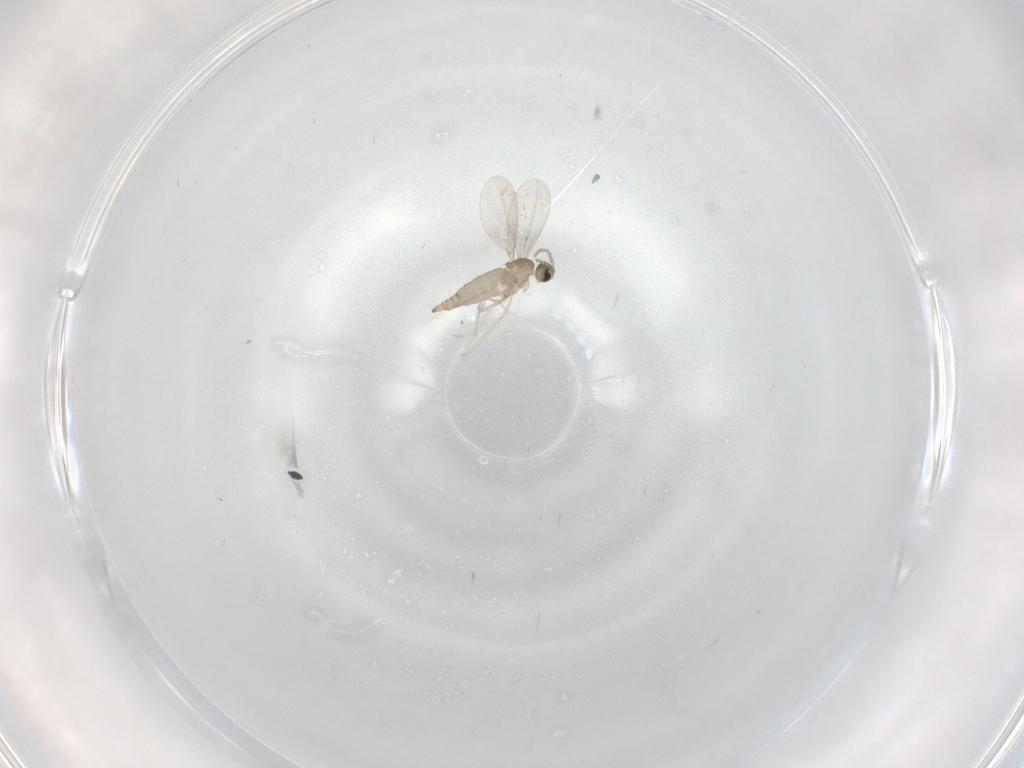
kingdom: Animalia
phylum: Arthropoda
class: Insecta
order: Diptera
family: Cecidomyiidae
